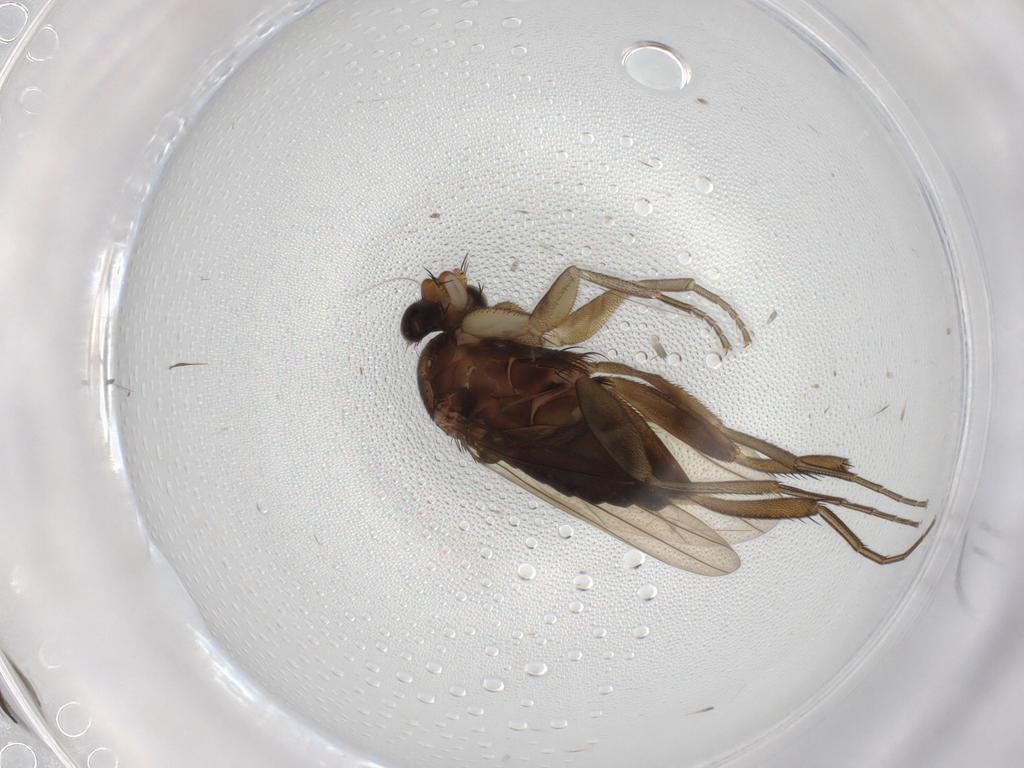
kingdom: Animalia
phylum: Arthropoda
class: Insecta
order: Diptera
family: Phoridae
